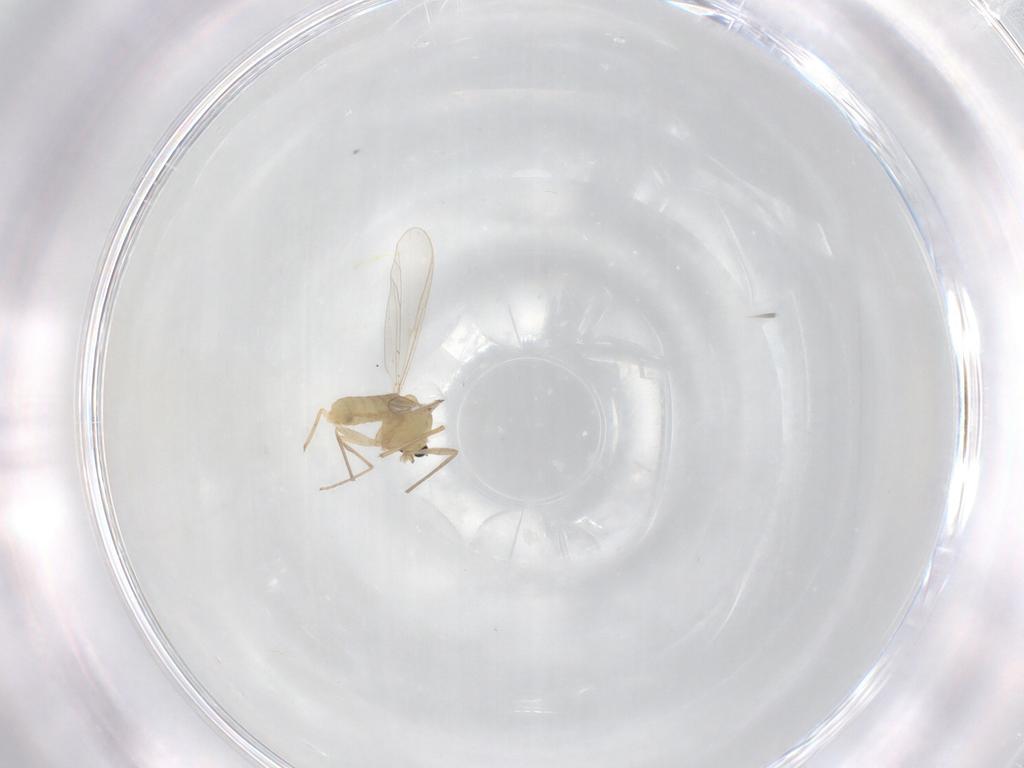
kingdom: Animalia
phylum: Arthropoda
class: Insecta
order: Diptera
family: Chironomidae
